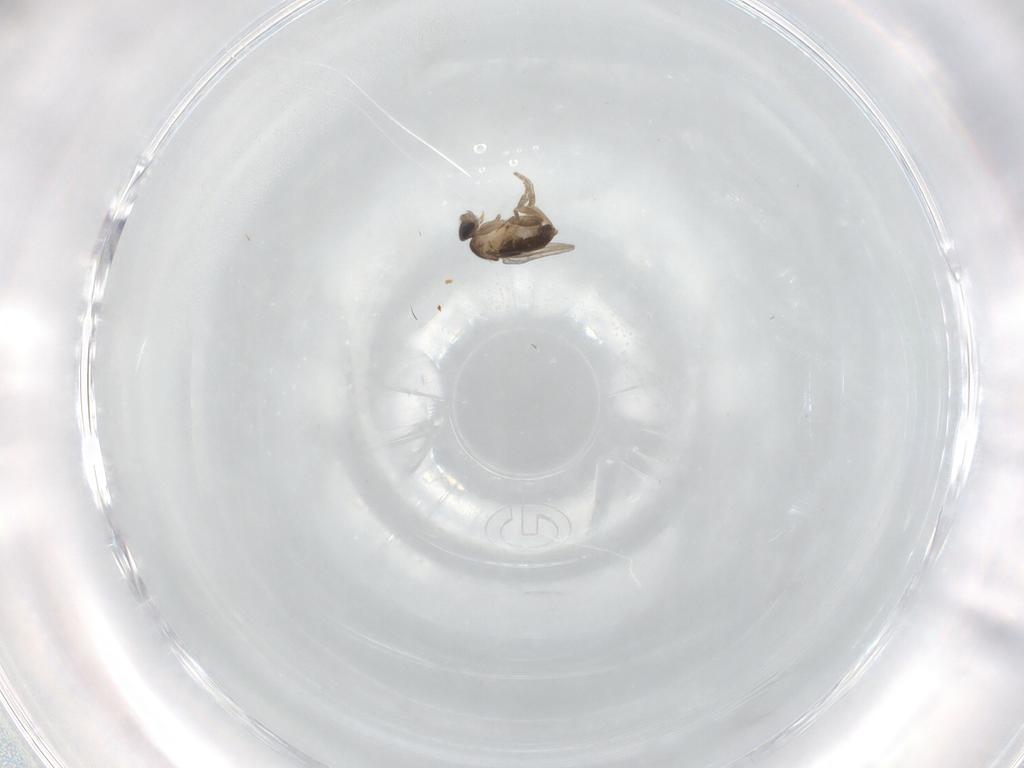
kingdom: Animalia
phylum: Arthropoda
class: Insecta
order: Diptera
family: Phoridae
